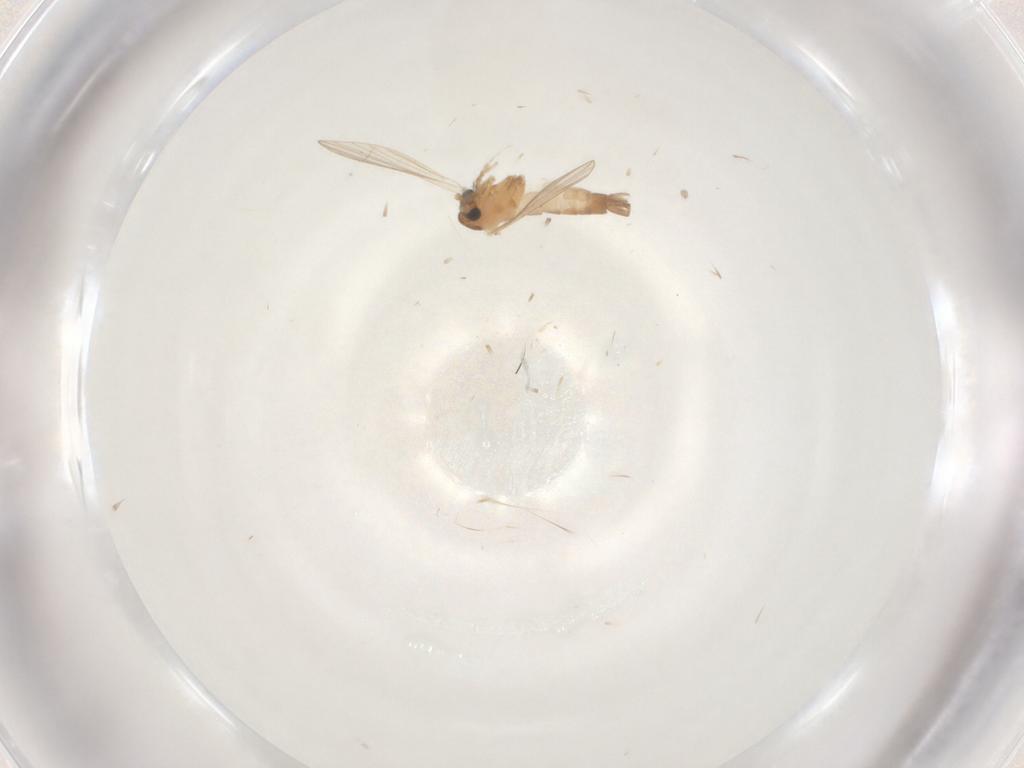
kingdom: Animalia
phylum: Arthropoda
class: Insecta
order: Diptera
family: Psychodidae
